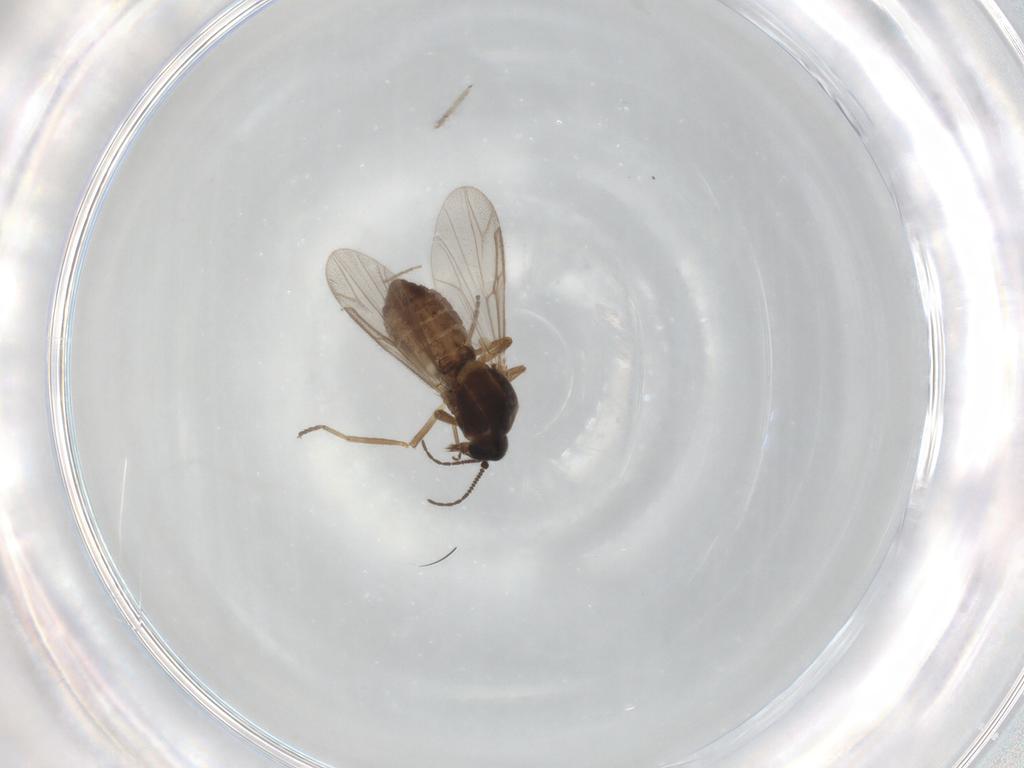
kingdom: Animalia
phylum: Arthropoda
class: Insecta
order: Diptera
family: Ceratopogonidae
